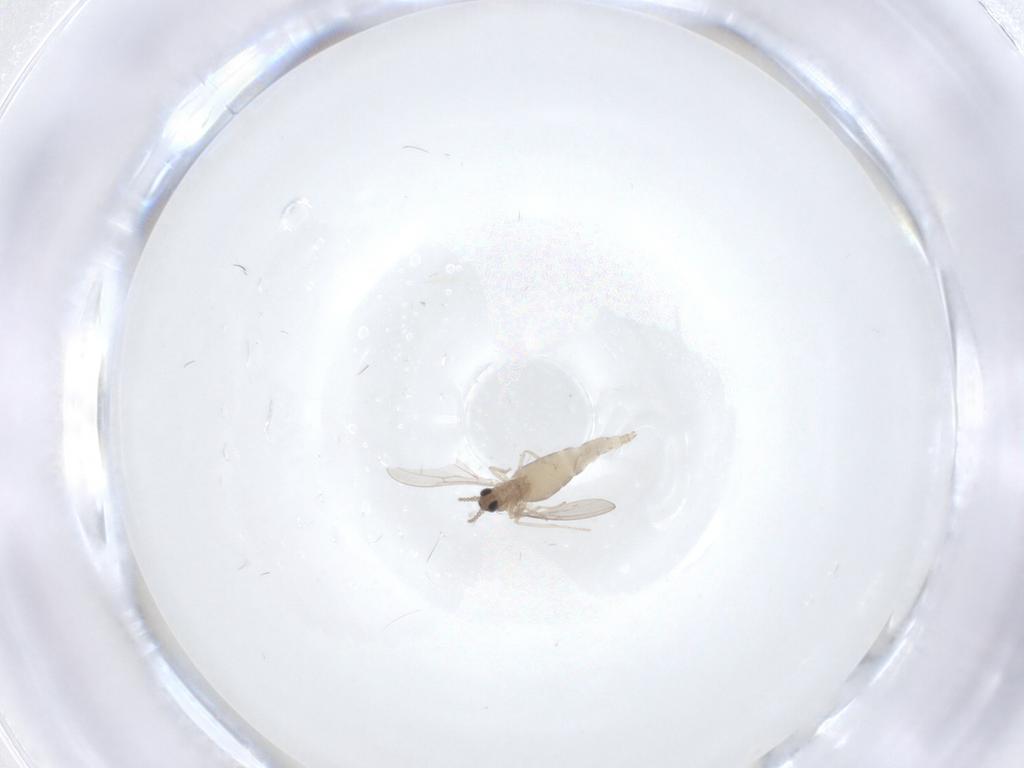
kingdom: Animalia
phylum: Arthropoda
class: Insecta
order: Diptera
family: Cecidomyiidae
